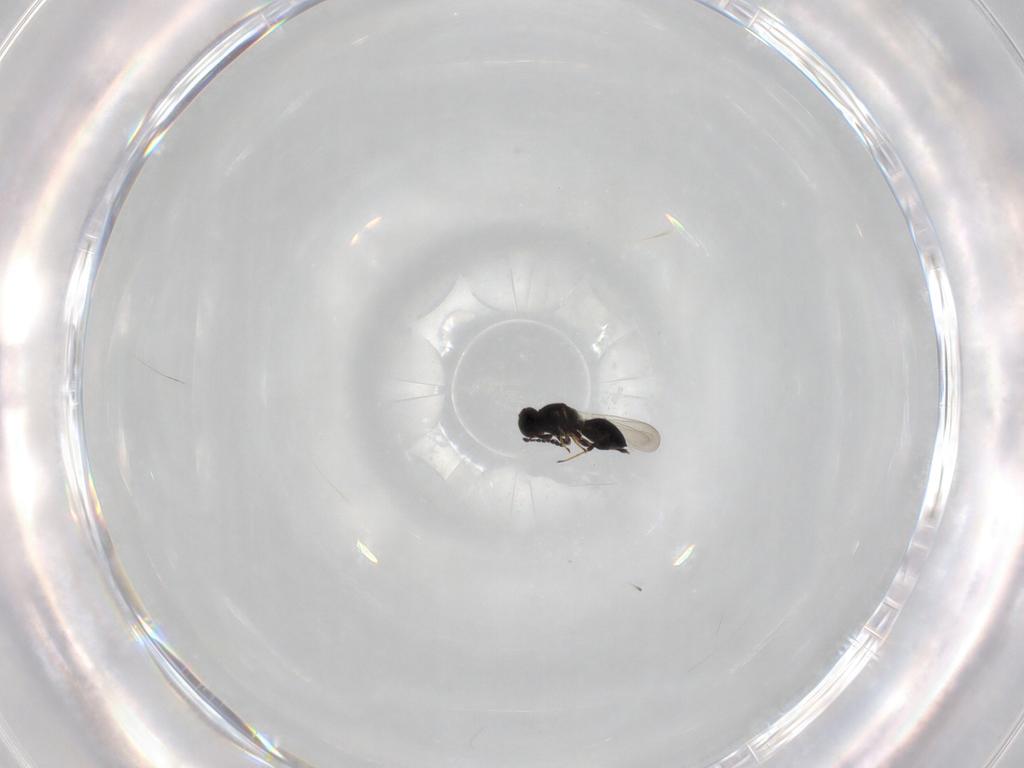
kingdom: Animalia
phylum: Arthropoda
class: Insecta
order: Hymenoptera
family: Platygastridae
